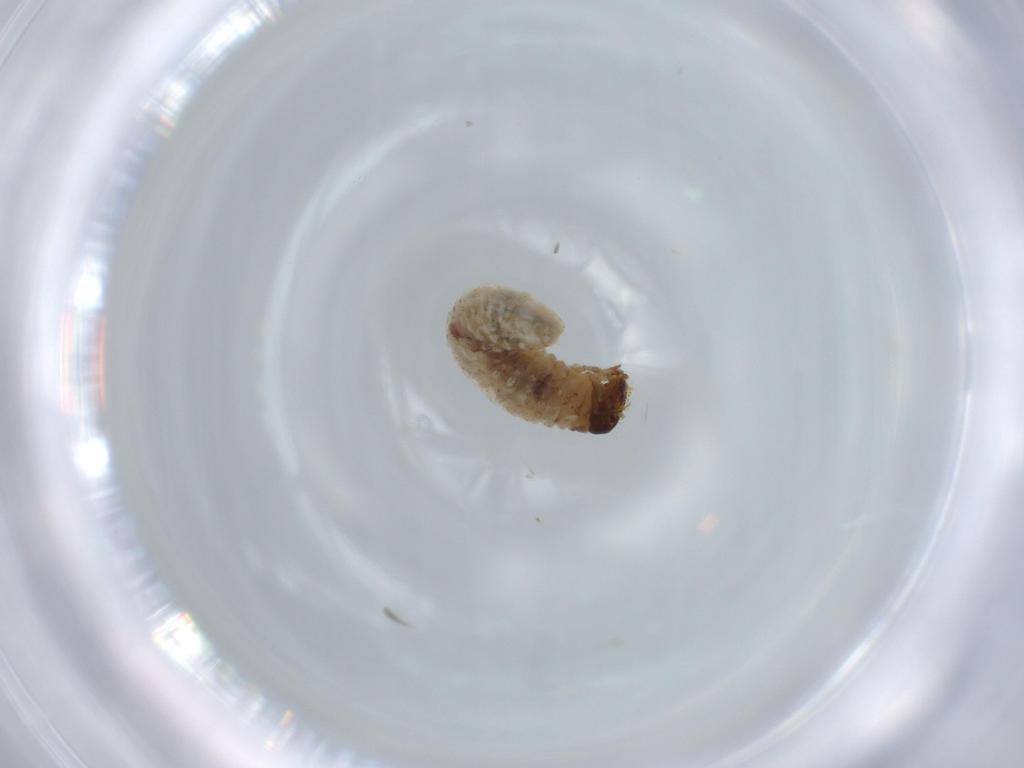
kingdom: Animalia
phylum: Arthropoda
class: Insecta
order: Coleoptera
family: Chrysomelidae
